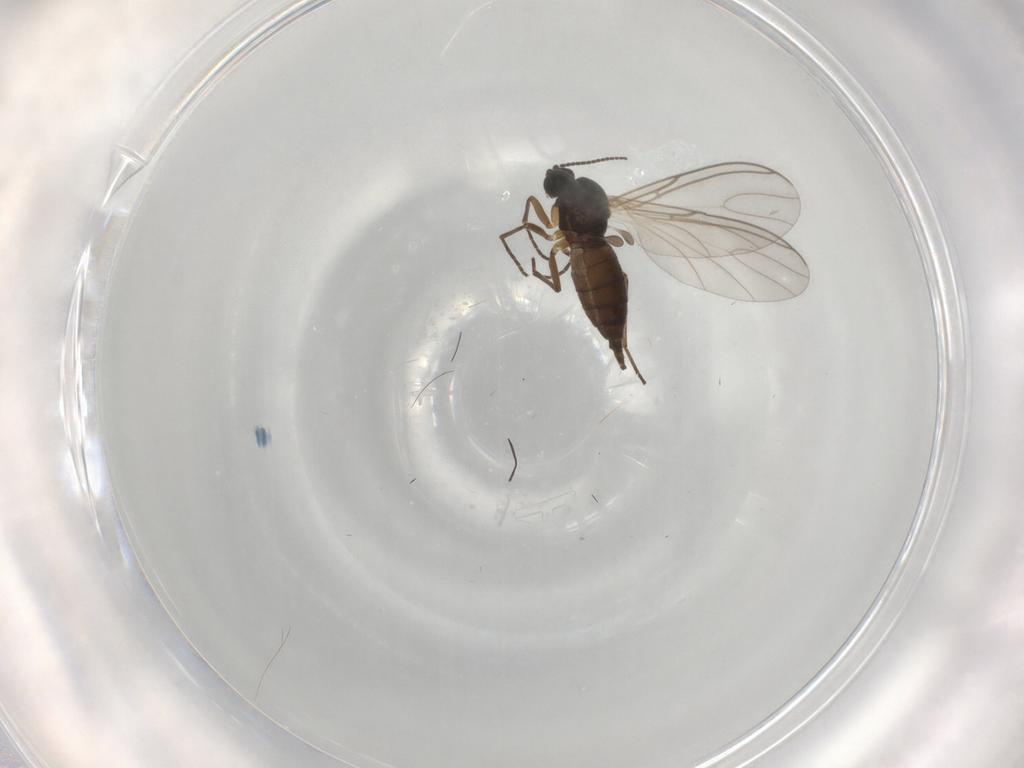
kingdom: Animalia
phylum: Arthropoda
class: Insecta
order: Diptera
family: Sciaridae
